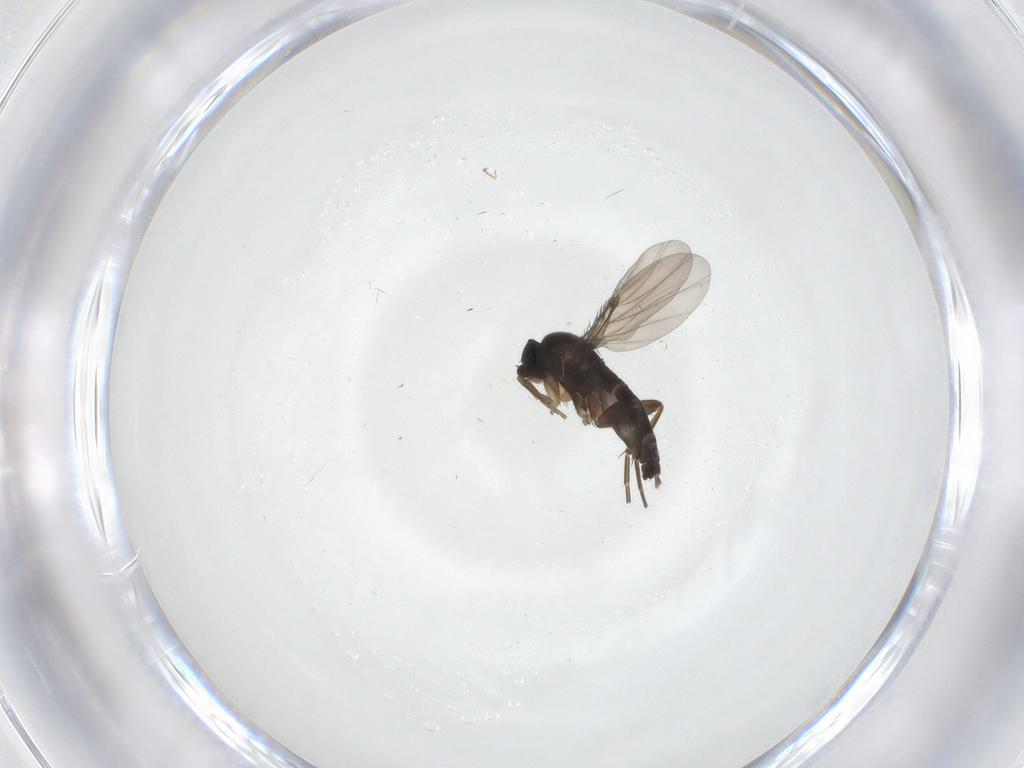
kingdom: Animalia
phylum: Arthropoda
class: Insecta
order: Diptera
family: Phoridae
